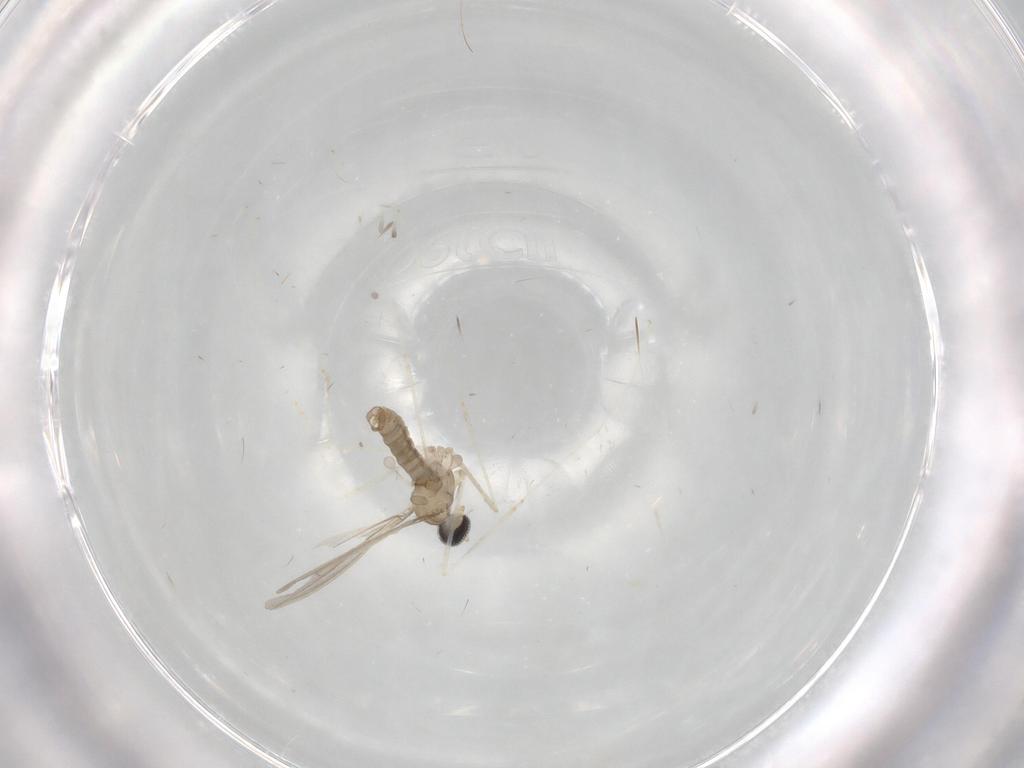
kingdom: Animalia
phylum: Arthropoda
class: Insecta
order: Diptera
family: Cecidomyiidae
